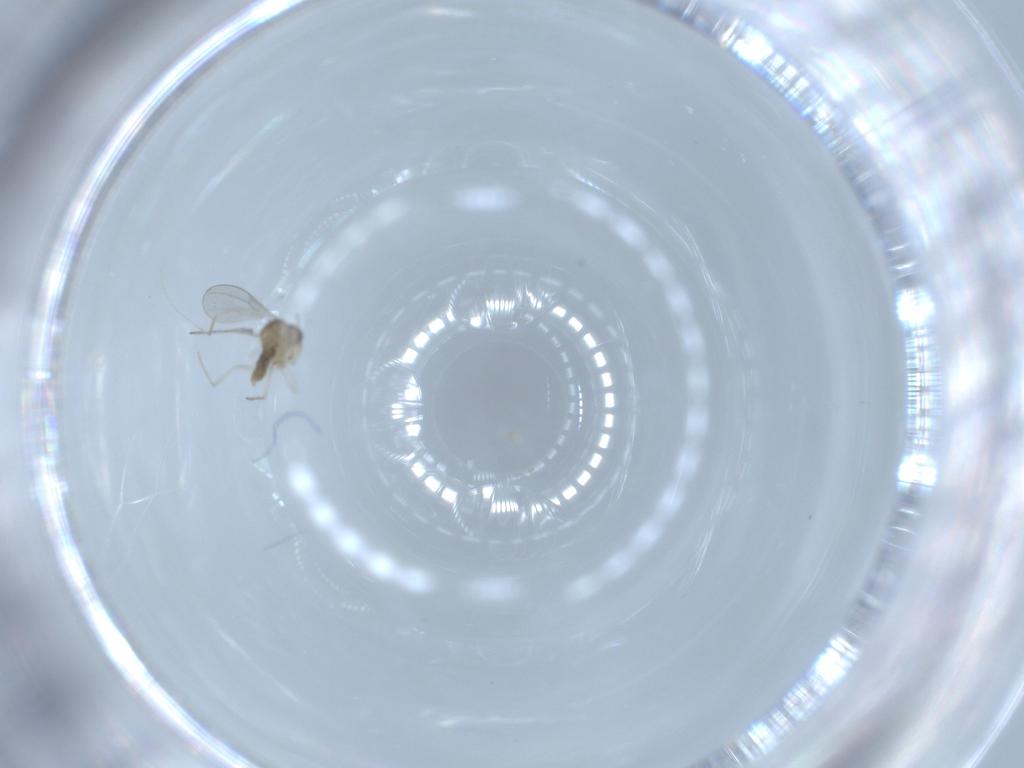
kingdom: Animalia
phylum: Arthropoda
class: Insecta
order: Diptera
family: Cecidomyiidae
